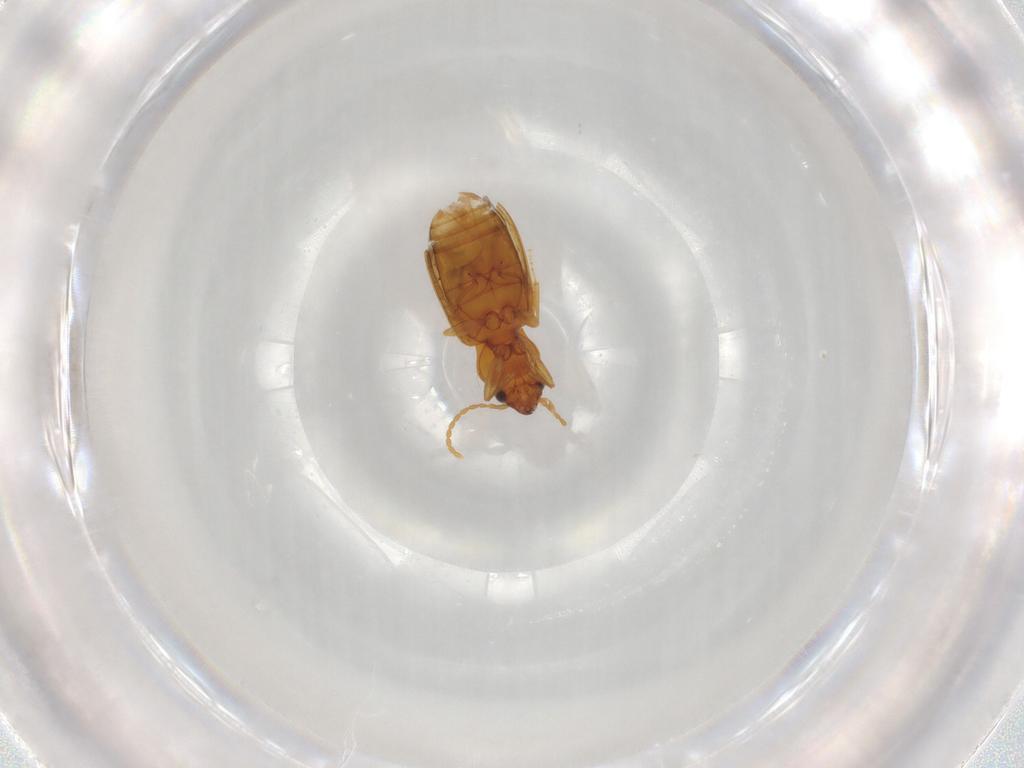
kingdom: Animalia
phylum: Arthropoda
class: Insecta
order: Coleoptera
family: Carabidae
